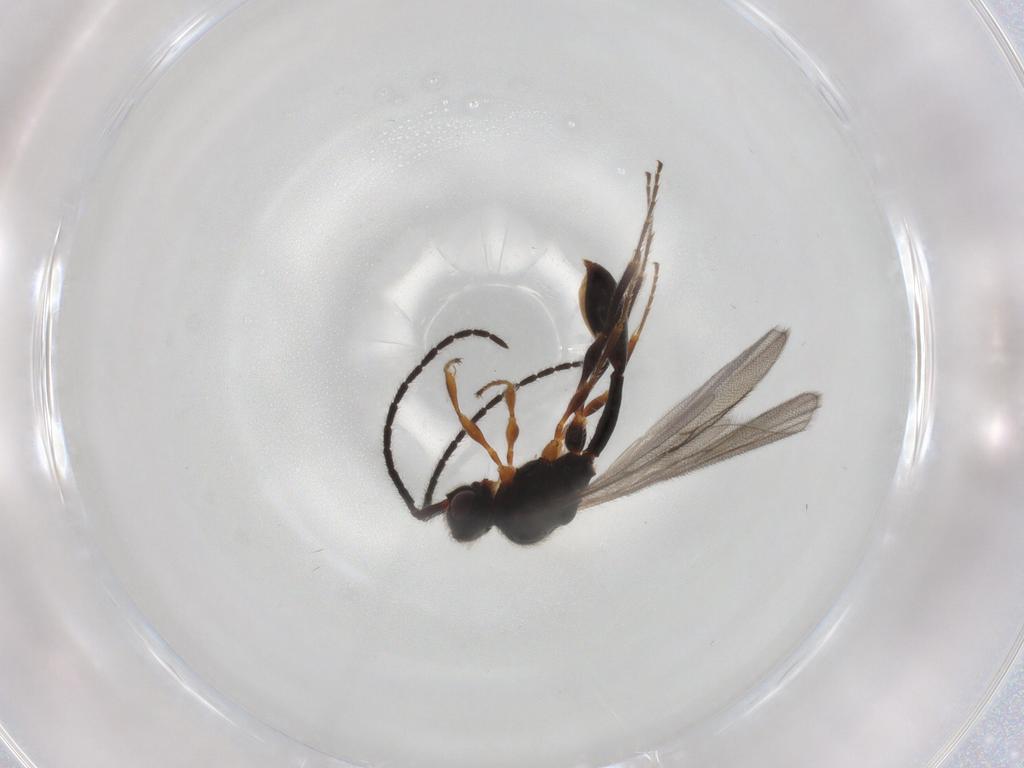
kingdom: Animalia
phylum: Arthropoda
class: Insecta
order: Hymenoptera
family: Diapriidae
